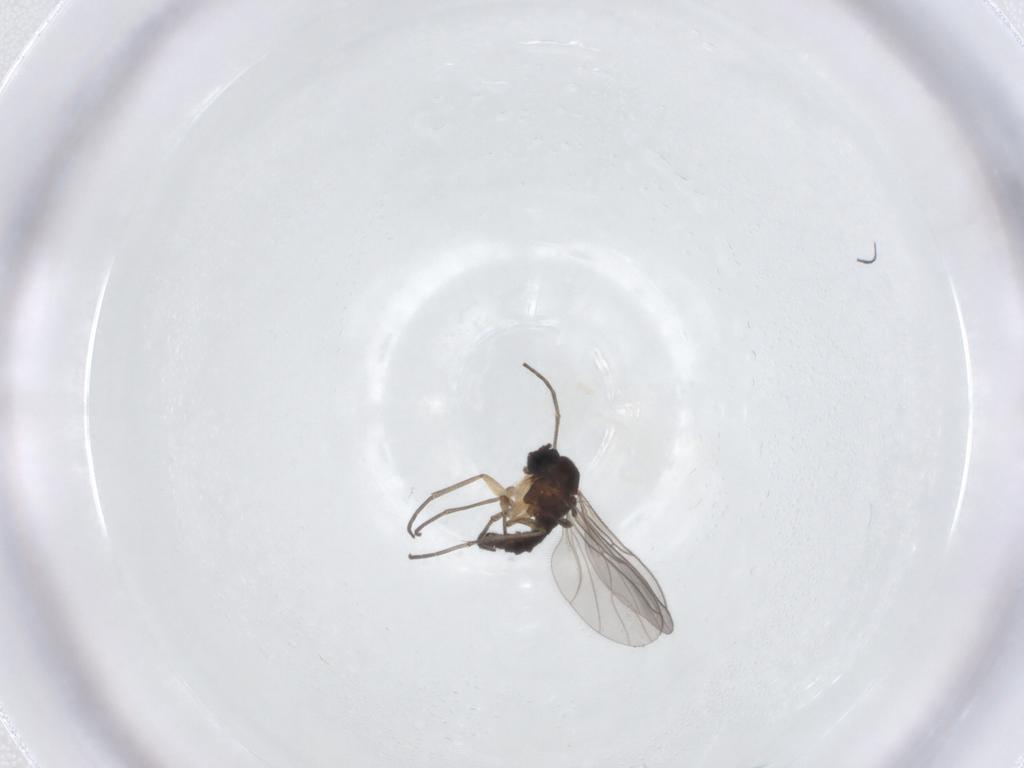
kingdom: Animalia
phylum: Arthropoda
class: Insecta
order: Diptera
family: Sciaridae
